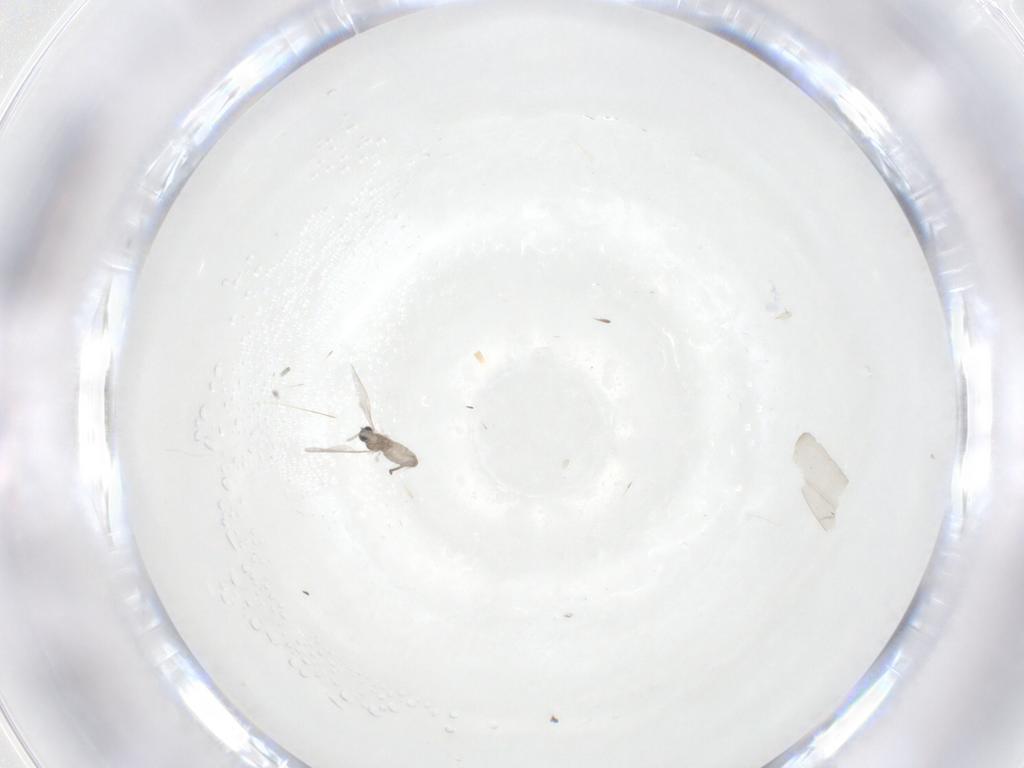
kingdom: Animalia
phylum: Arthropoda
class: Insecta
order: Diptera
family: Chironomidae
